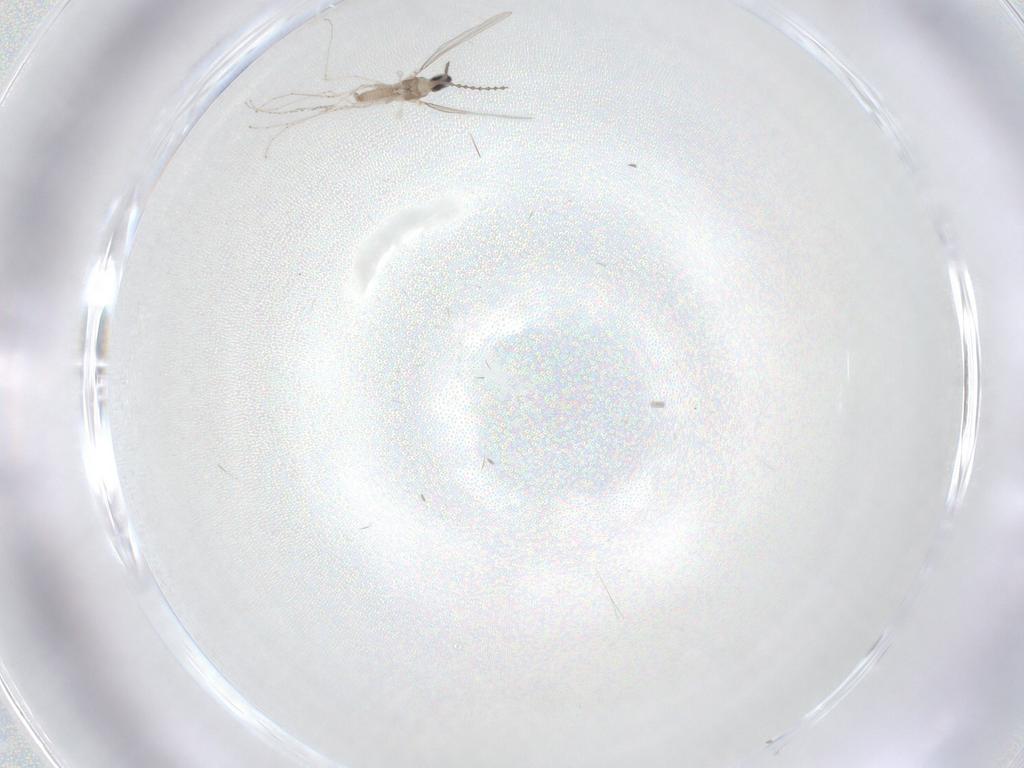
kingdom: Animalia
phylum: Arthropoda
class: Insecta
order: Diptera
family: Cecidomyiidae
